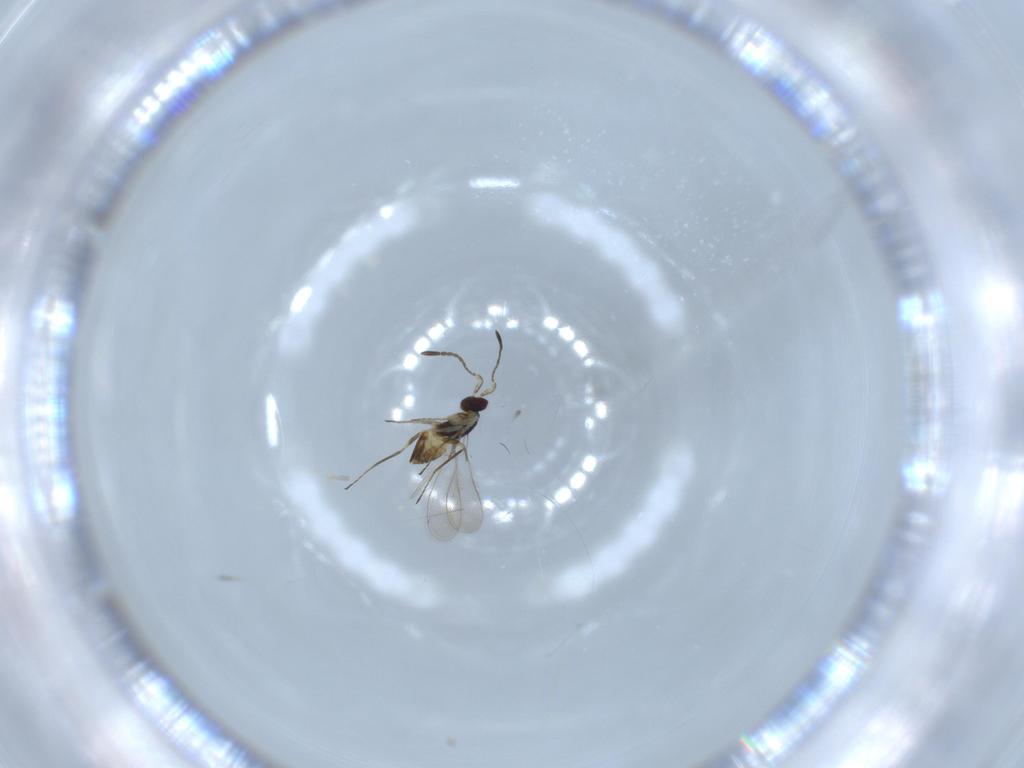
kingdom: Animalia
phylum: Arthropoda
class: Insecta
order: Hymenoptera
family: Mymaridae
